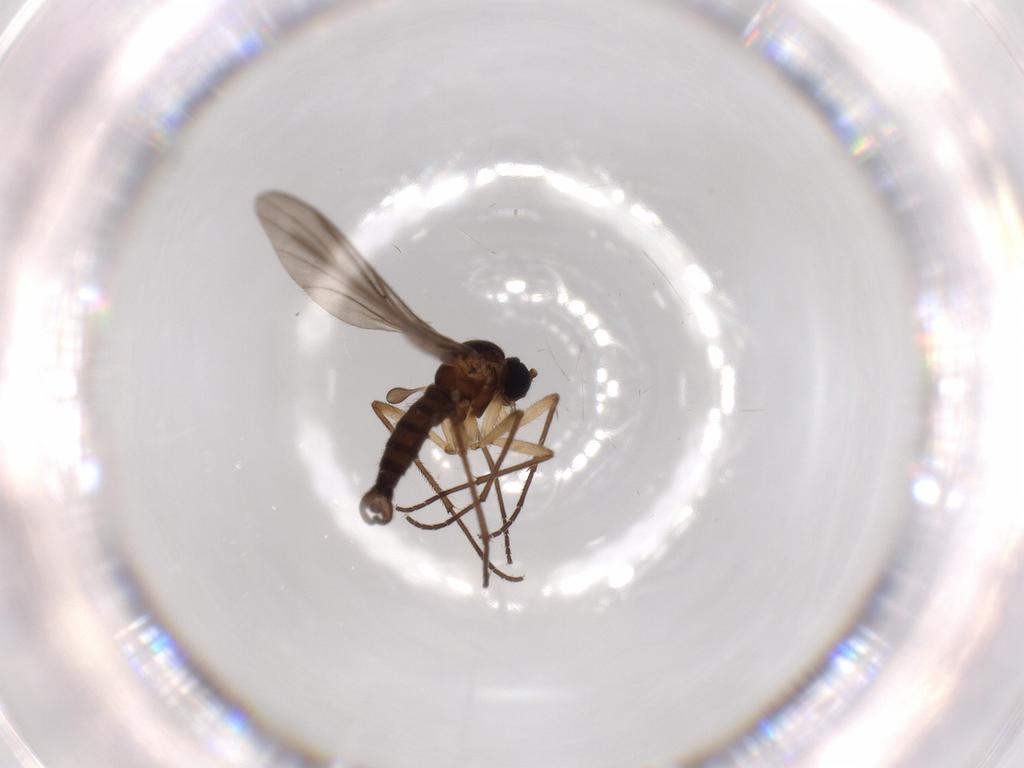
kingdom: Animalia
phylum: Arthropoda
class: Insecta
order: Diptera
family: Sciaridae
